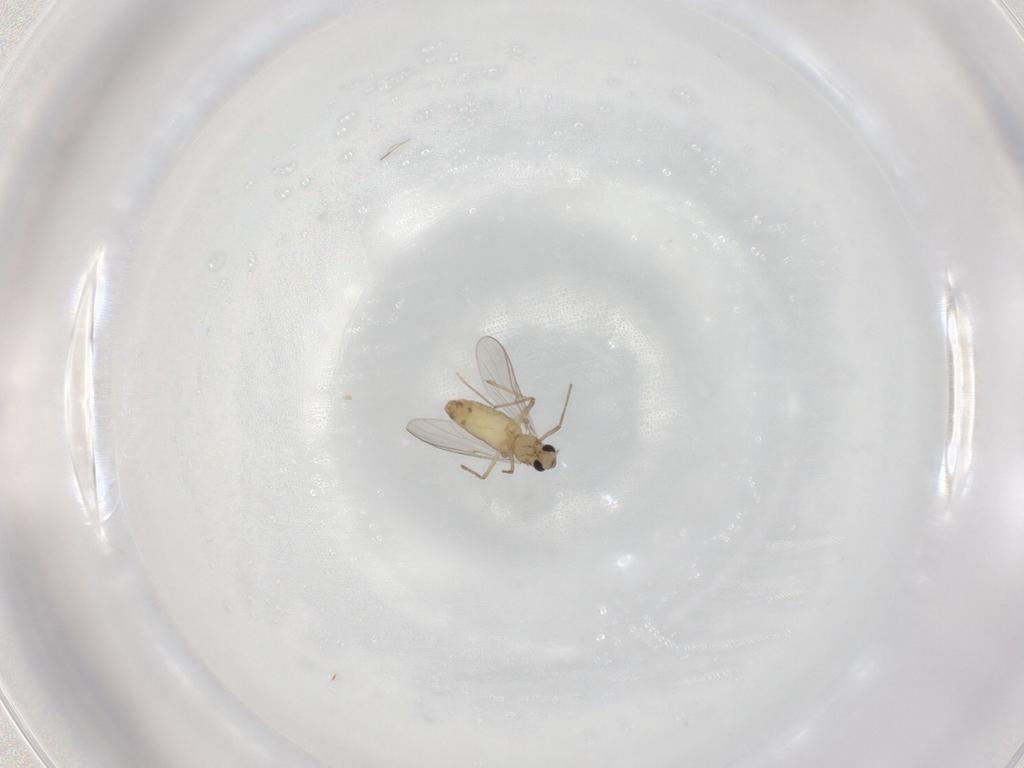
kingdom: Animalia
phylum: Arthropoda
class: Insecta
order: Diptera
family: Chironomidae
